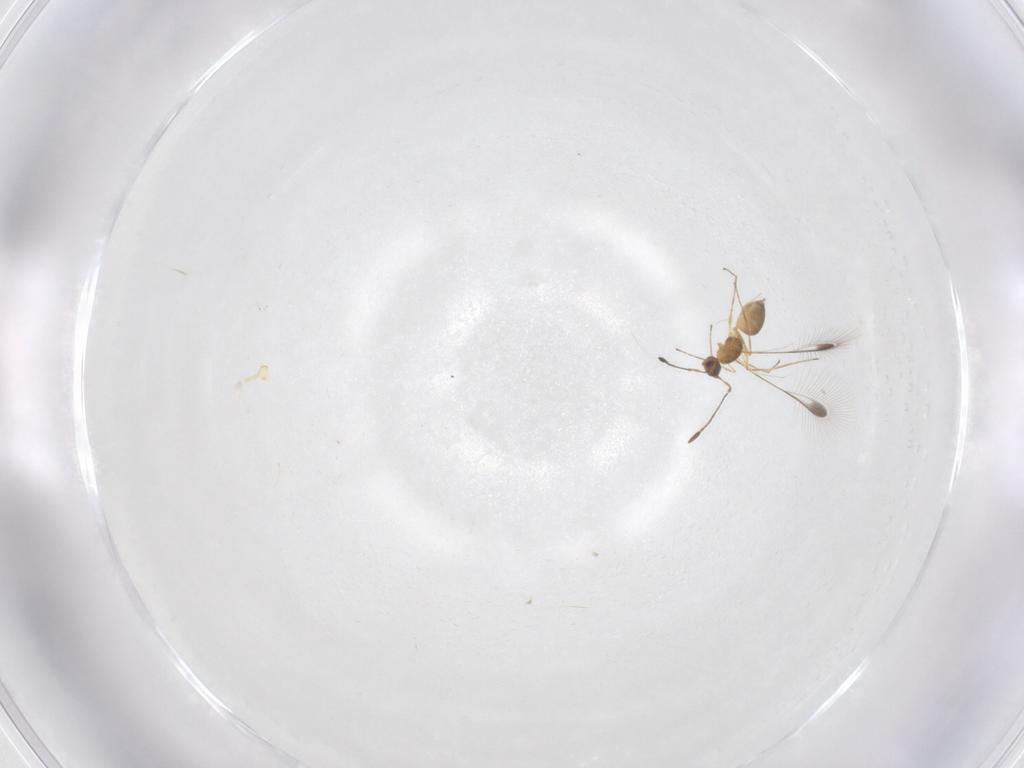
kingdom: Animalia
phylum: Arthropoda
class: Insecta
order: Hymenoptera
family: Mymaridae
